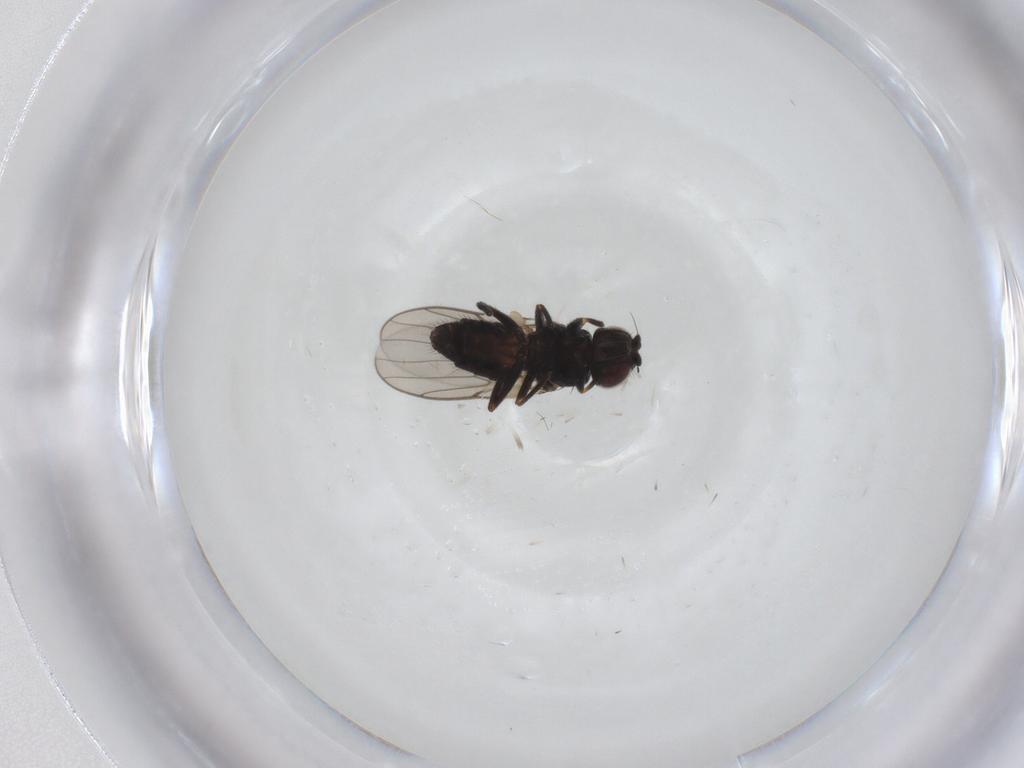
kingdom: Animalia
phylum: Arthropoda
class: Insecta
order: Diptera
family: Chloropidae
